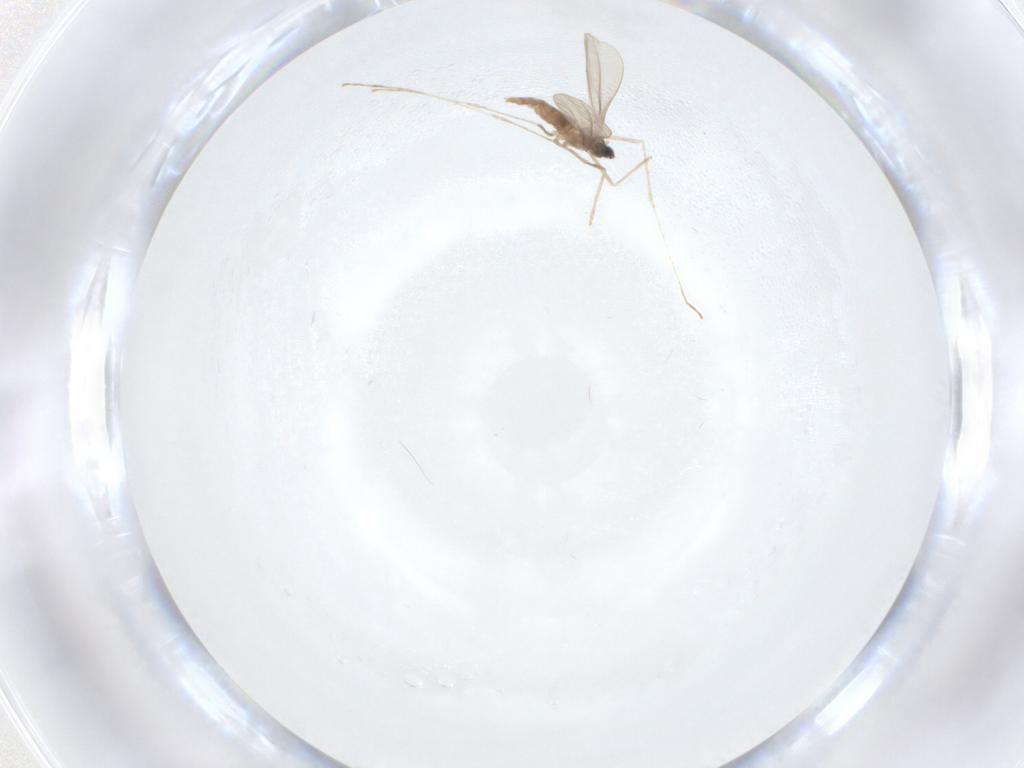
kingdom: Animalia
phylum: Arthropoda
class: Insecta
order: Diptera
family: Cecidomyiidae
